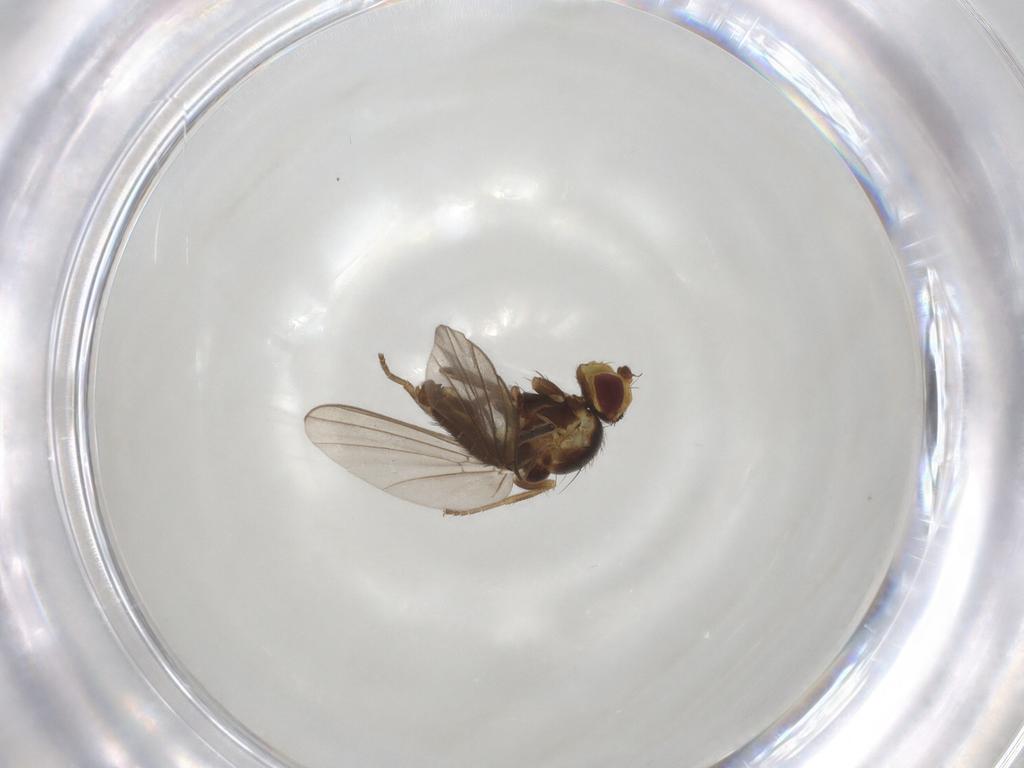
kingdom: Animalia
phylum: Arthropoda
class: Insecta
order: Diptera
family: Agromyzidae
